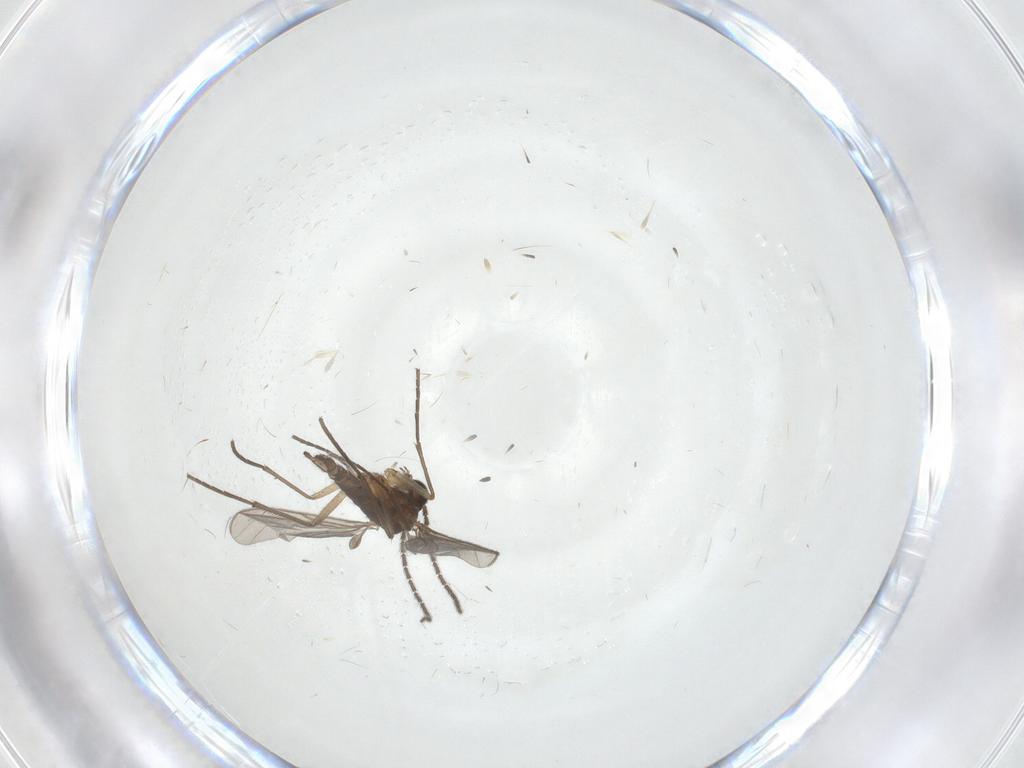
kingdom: Animalia
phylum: Arthropoda
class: Insecta
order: Diptera
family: Sciaridae
